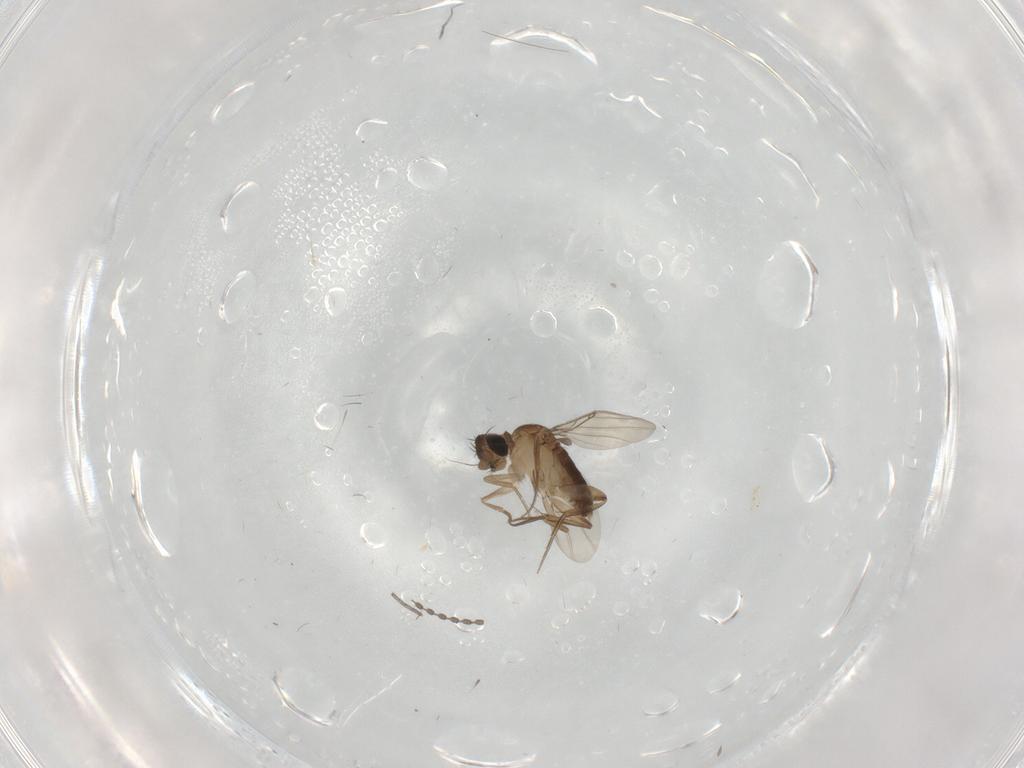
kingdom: Animalia
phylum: Arthropoda
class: Insecta
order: Diptera
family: Phoridae
